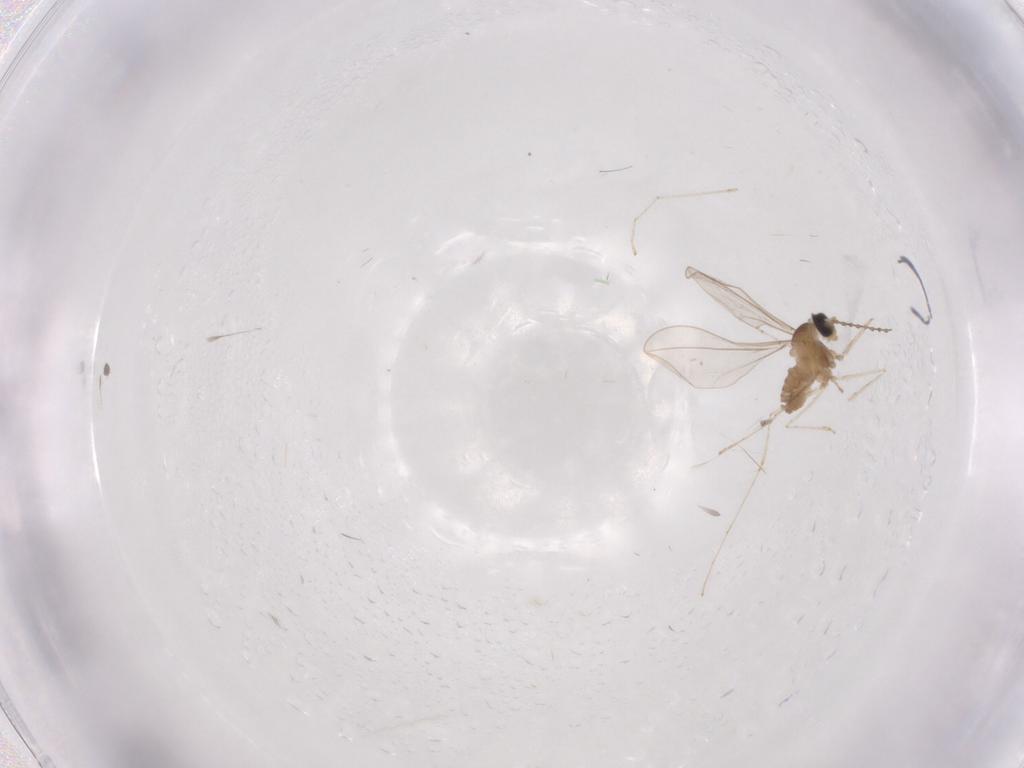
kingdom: Animalia
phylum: Arthropoda
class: Insecta
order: Diptera
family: Cecidomyiidae
